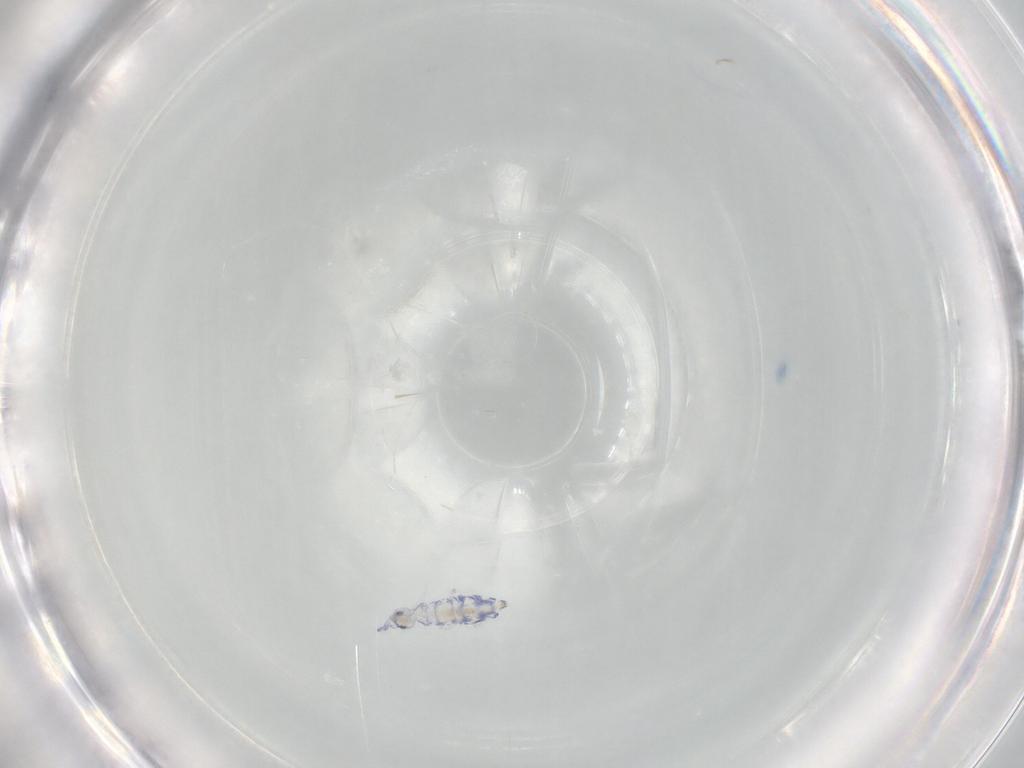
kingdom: Animalia
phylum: Arthropoda
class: Collembola
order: Entomobryomorpha
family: Entomobryidae
